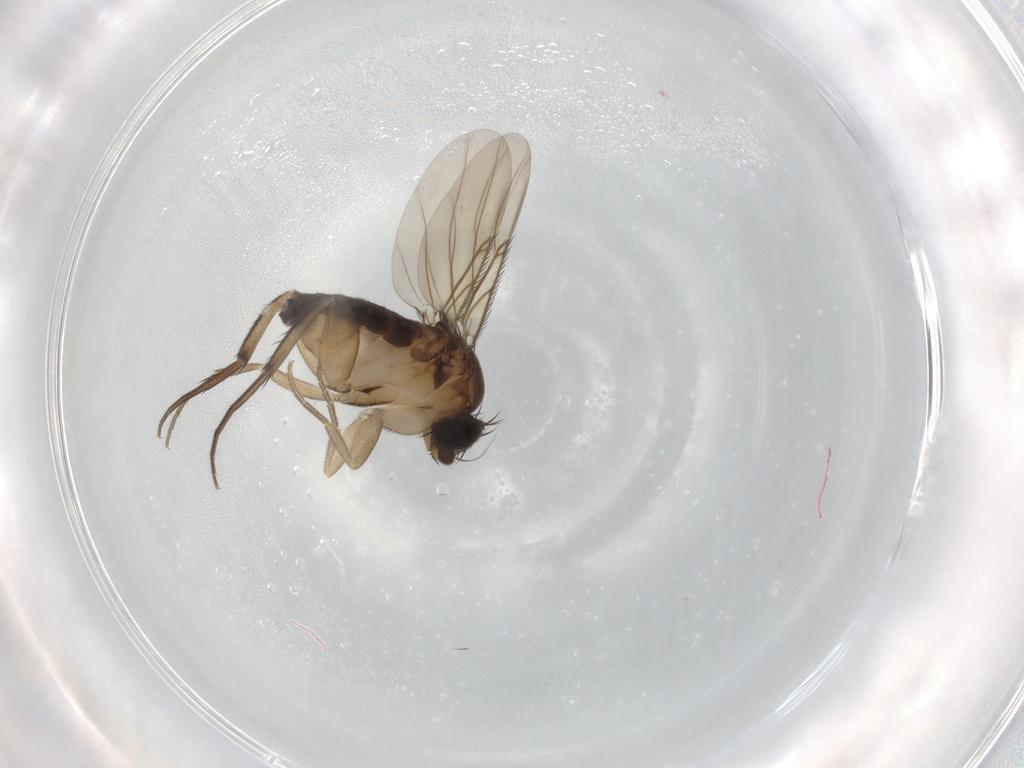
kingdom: Animalia
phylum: Arthropoda
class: Insecta
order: Diptera
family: Phoridae
